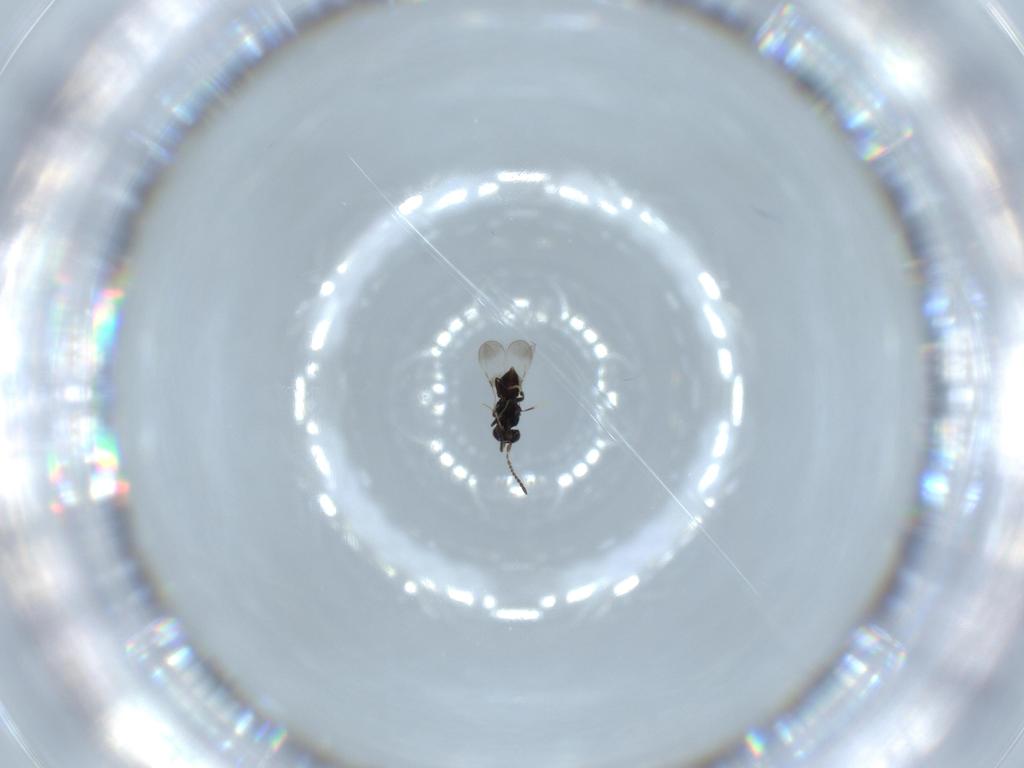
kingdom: Animalia
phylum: Arthropoda
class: Insecta
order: Hymenoptera
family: Ceraphronidae
